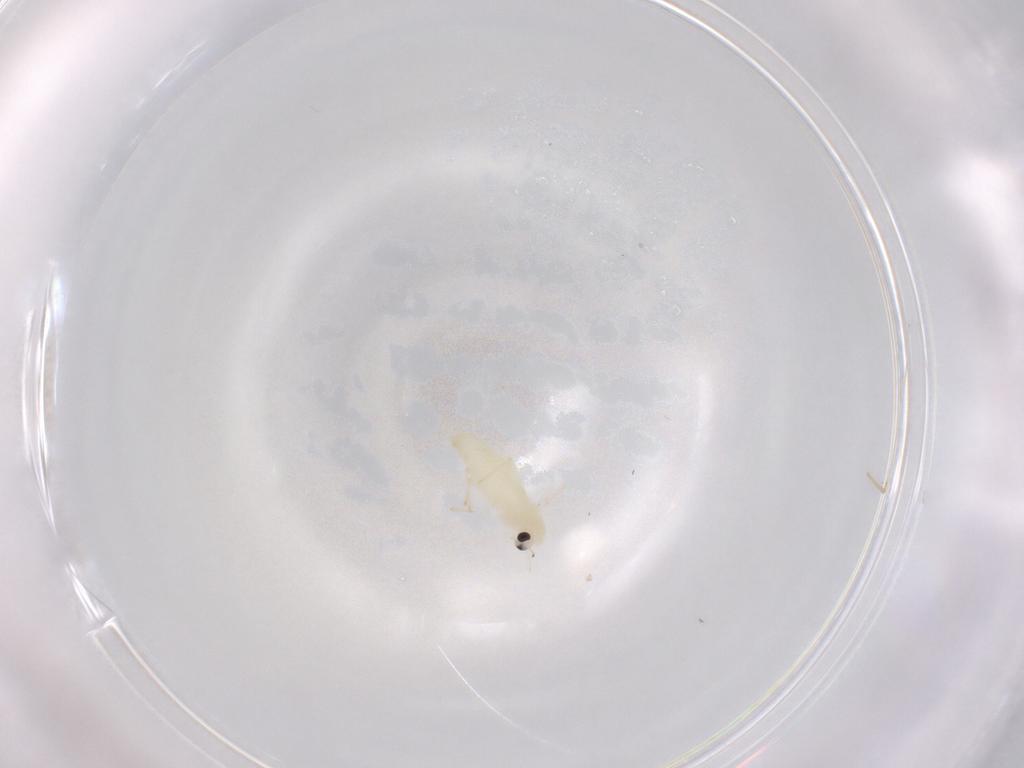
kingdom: Animalia
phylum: Arthropoda
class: Insecta
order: Diptera
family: Chironomidae
